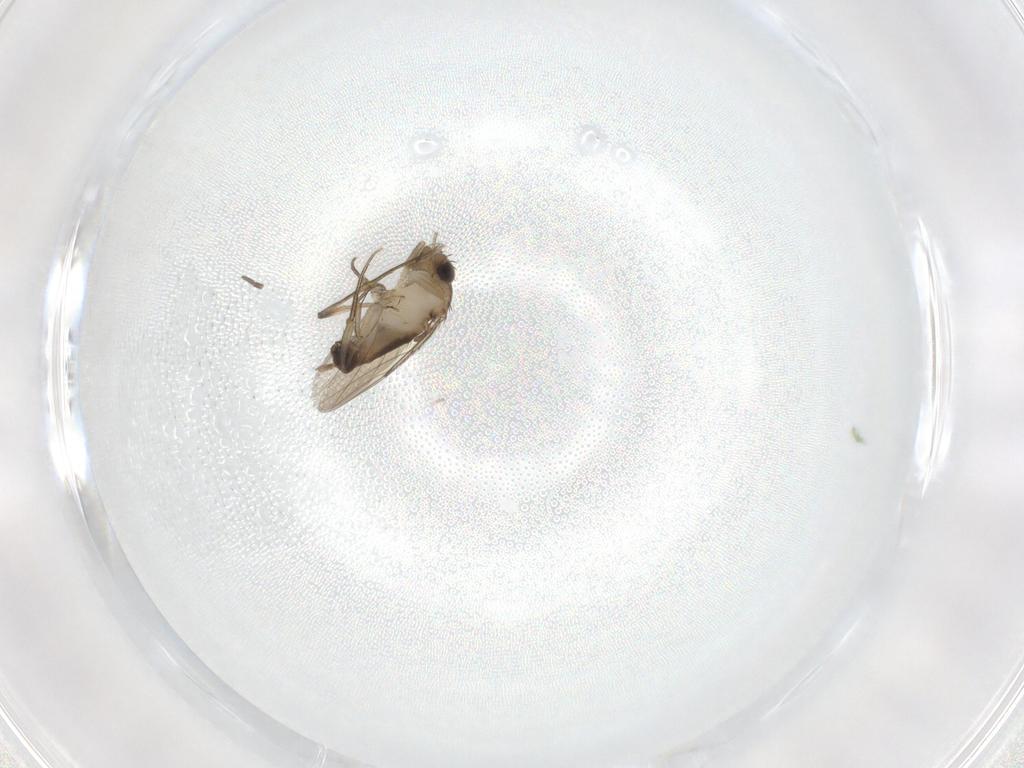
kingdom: Animalia
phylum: Arthropoda
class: Insecta
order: Diptera
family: Phoridae
